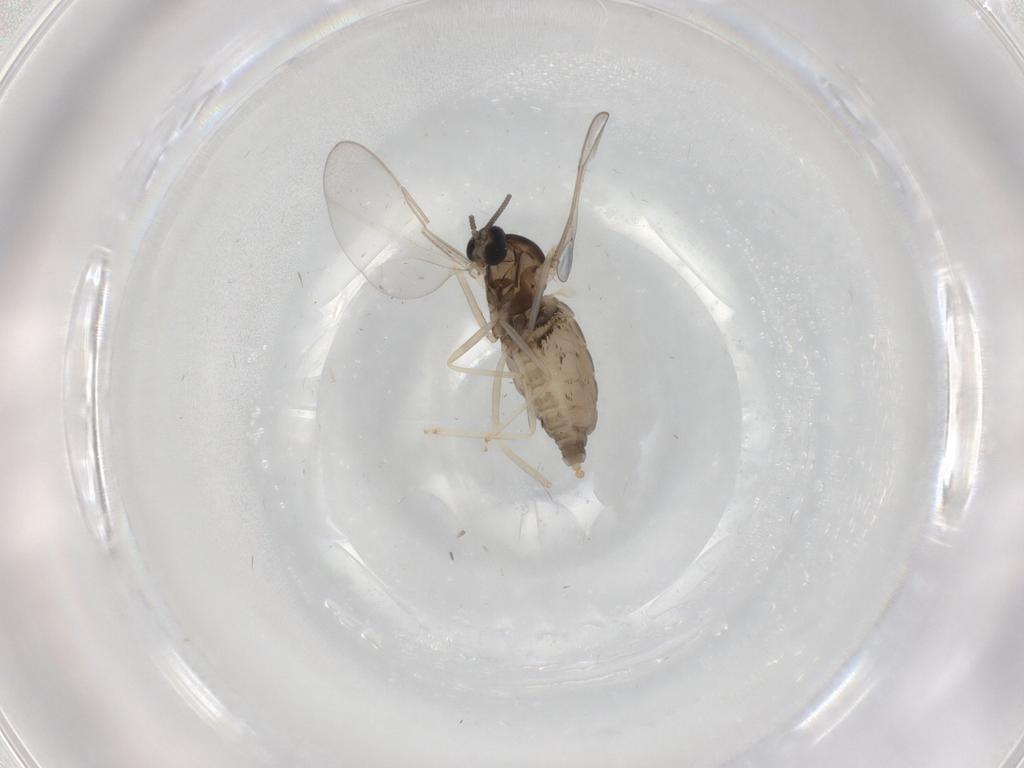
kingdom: Animalia
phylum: Arthropoda
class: Insecta
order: Diptera
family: Cecidomyiidae
